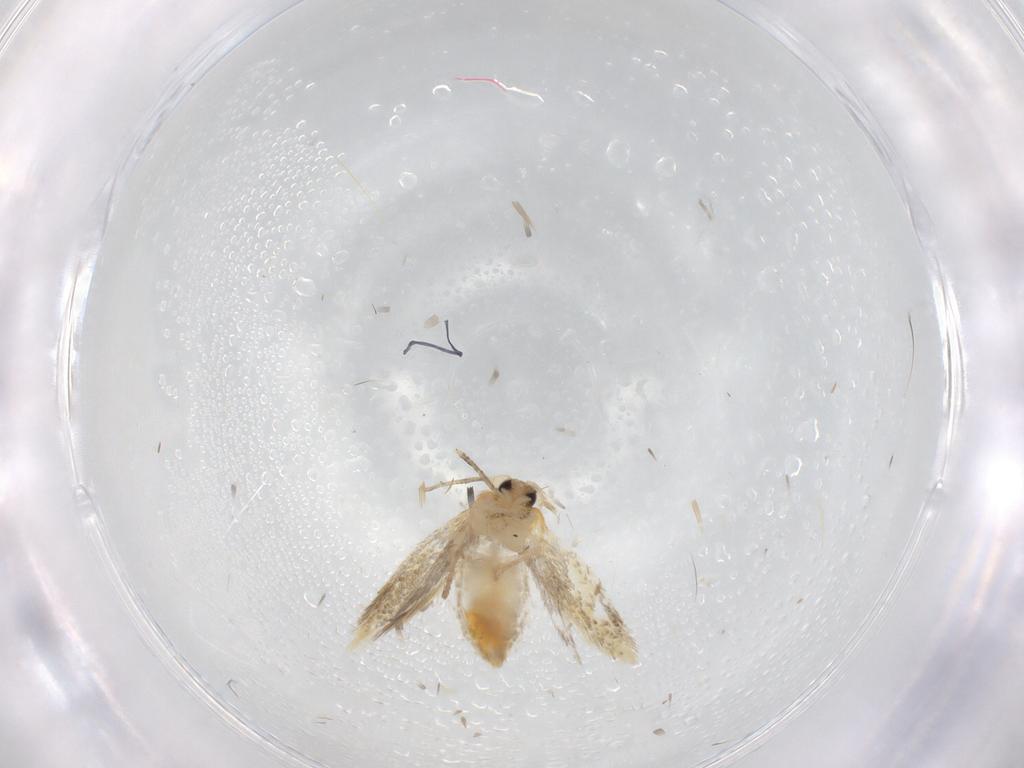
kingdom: Animalia
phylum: Arthropoda
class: Insecta
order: Lepidoptera
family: Nepticulidae
